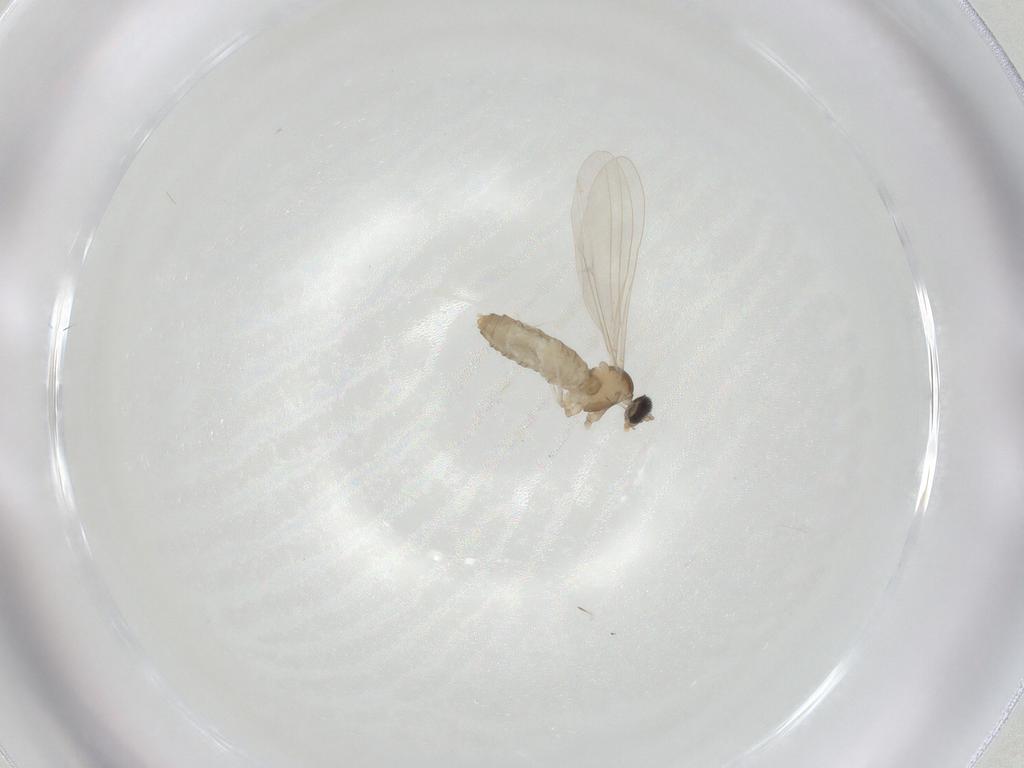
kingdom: Animalia
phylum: Arthropoda
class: Insecta
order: Diptera
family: Cecidomyiidae
